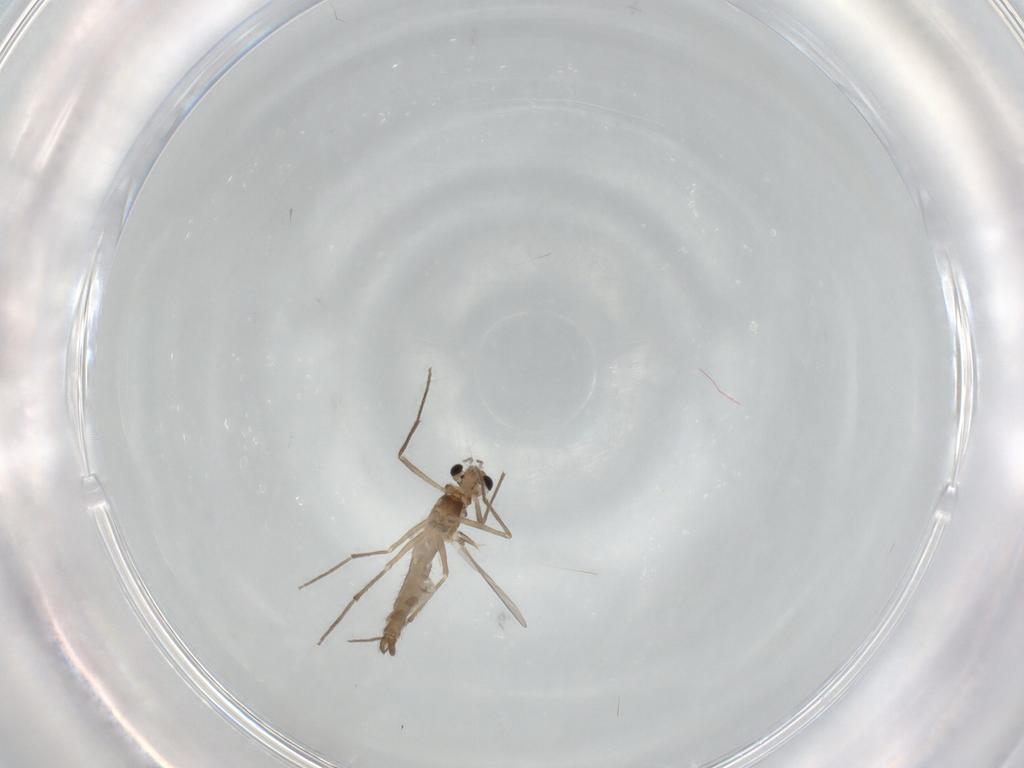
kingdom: Animalia
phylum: Arthropoda
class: Insecta
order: Diptera
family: Chironomidae
